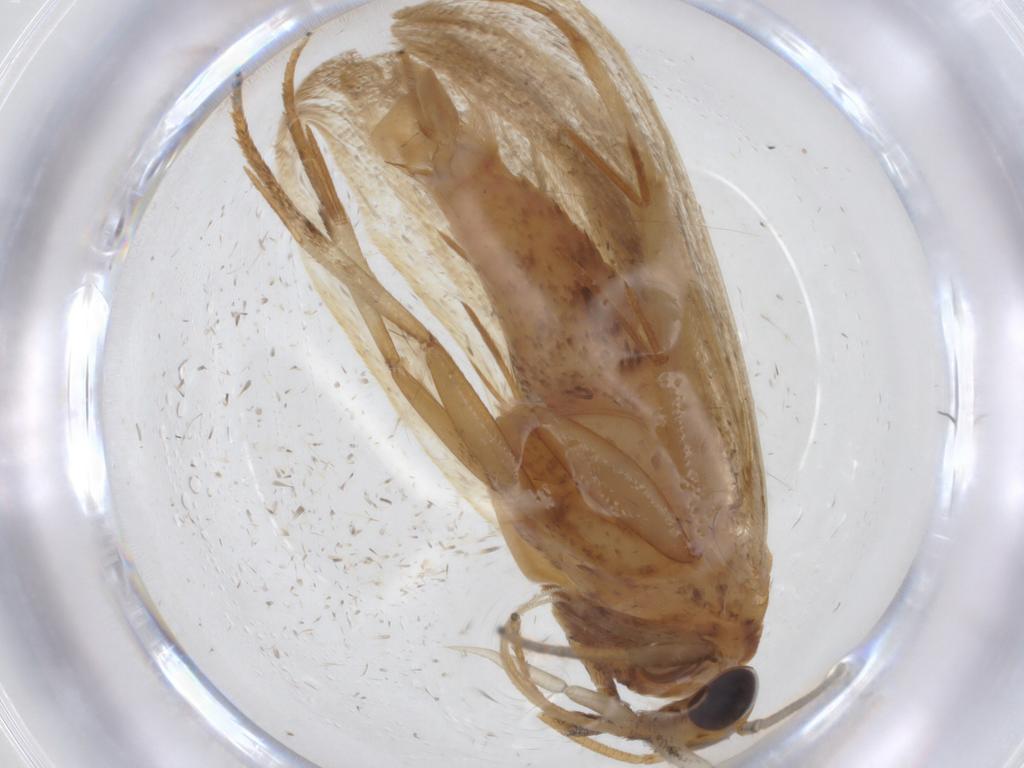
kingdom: Animalia
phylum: Arthropoda
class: Insecta
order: Lepidoptera
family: Oecophoridae
